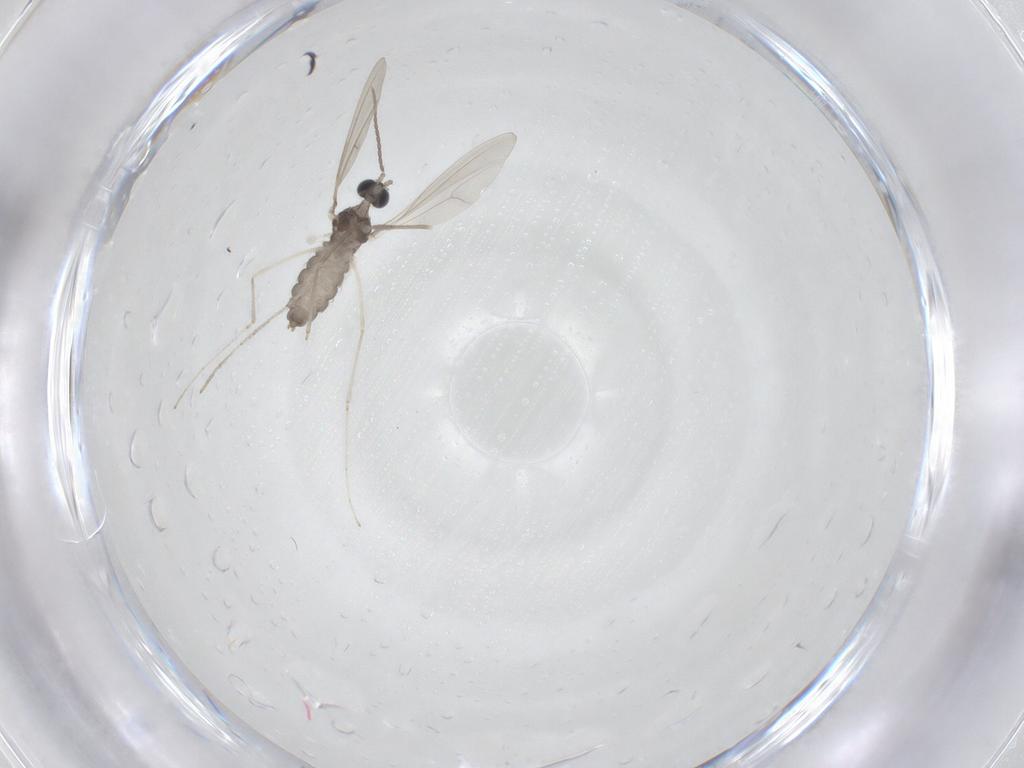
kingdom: Animalia
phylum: Arthropoda
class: Insecta
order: Diptera
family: Cecidomyiidae
